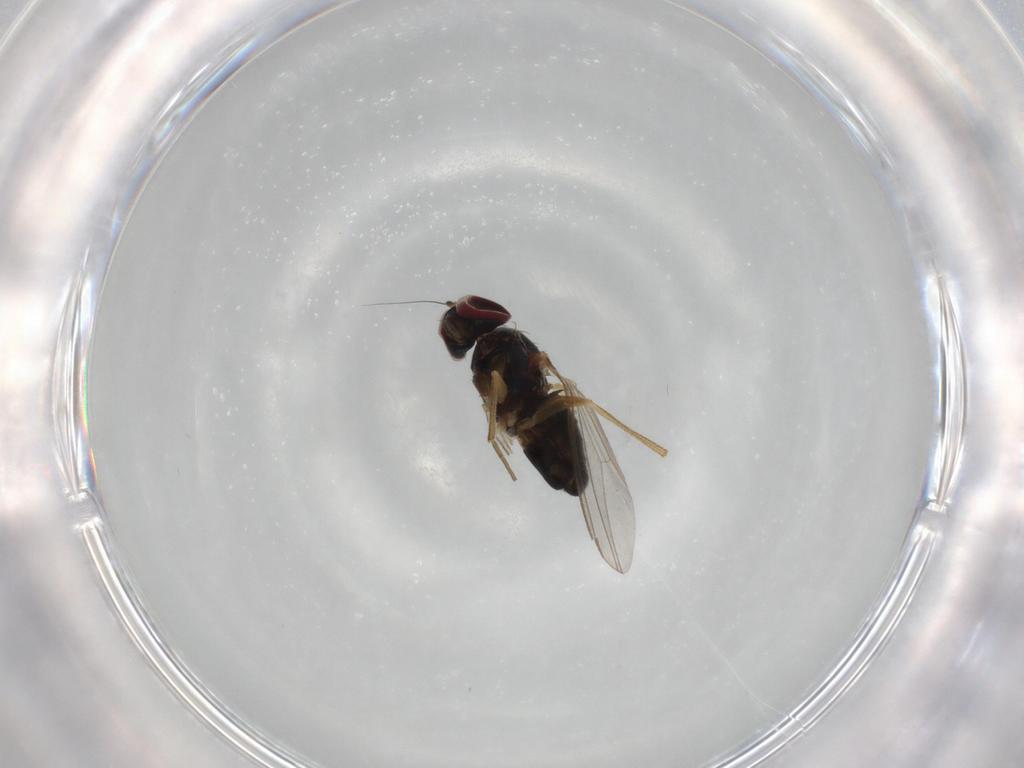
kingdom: Animalia
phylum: Arthropoda
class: Insecta
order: Diptera
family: Dolichopodidae
